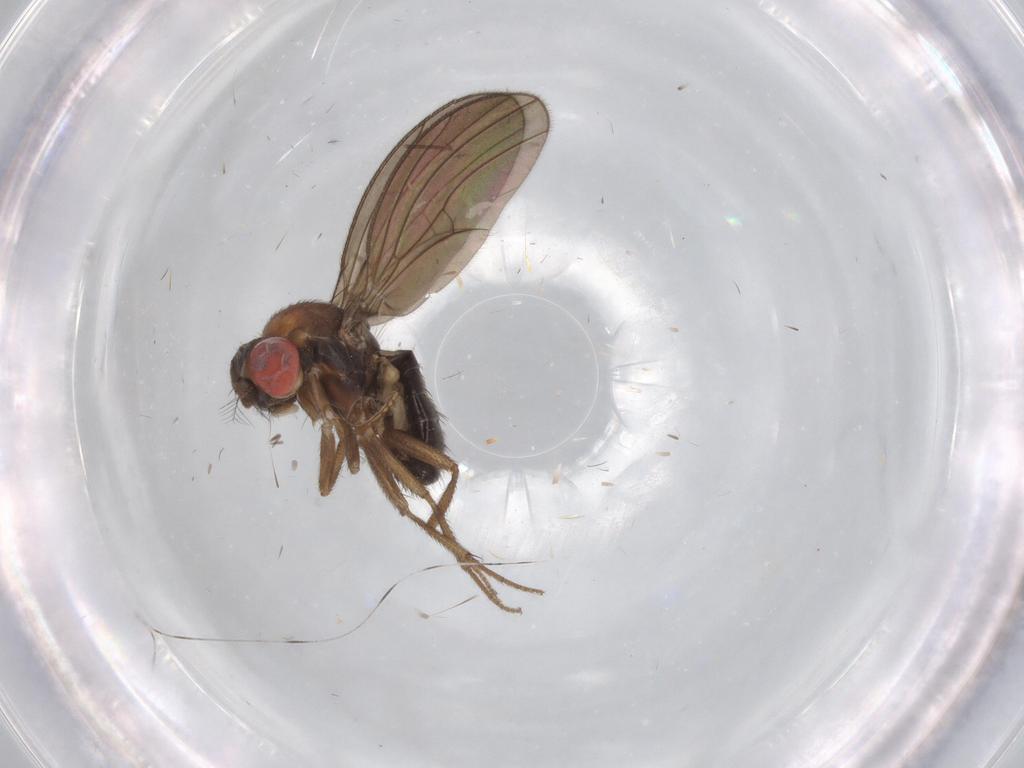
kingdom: Animalia
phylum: Arthropoda
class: Insecta
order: Diptera
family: Drosophilidae
